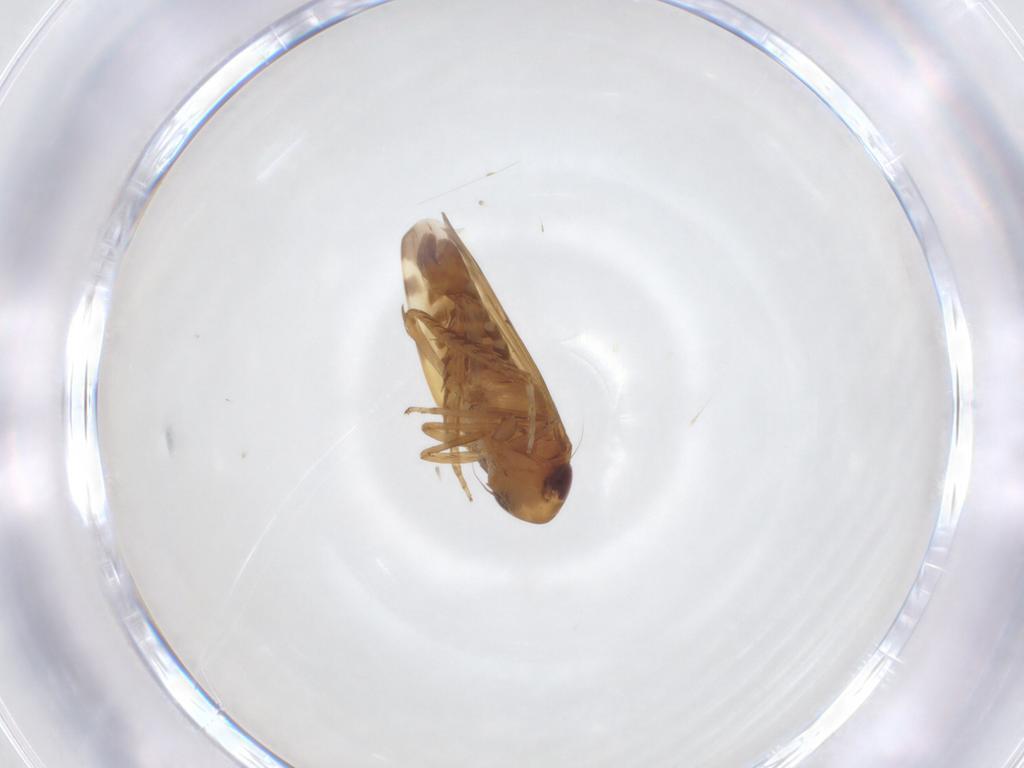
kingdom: Animalia
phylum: Arthropoda
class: Insecta
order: Hemiptera
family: Cicadellidae
